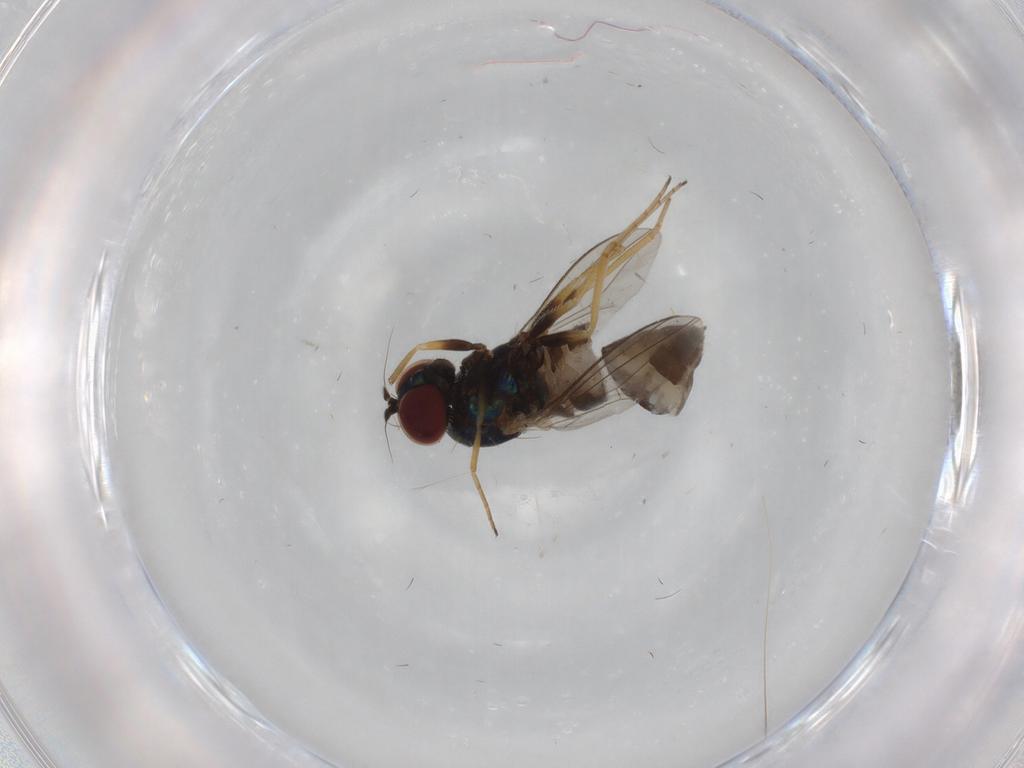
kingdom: Animalia
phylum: Arthropoda
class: Insecta
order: Diptera
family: Dolichopodidae
